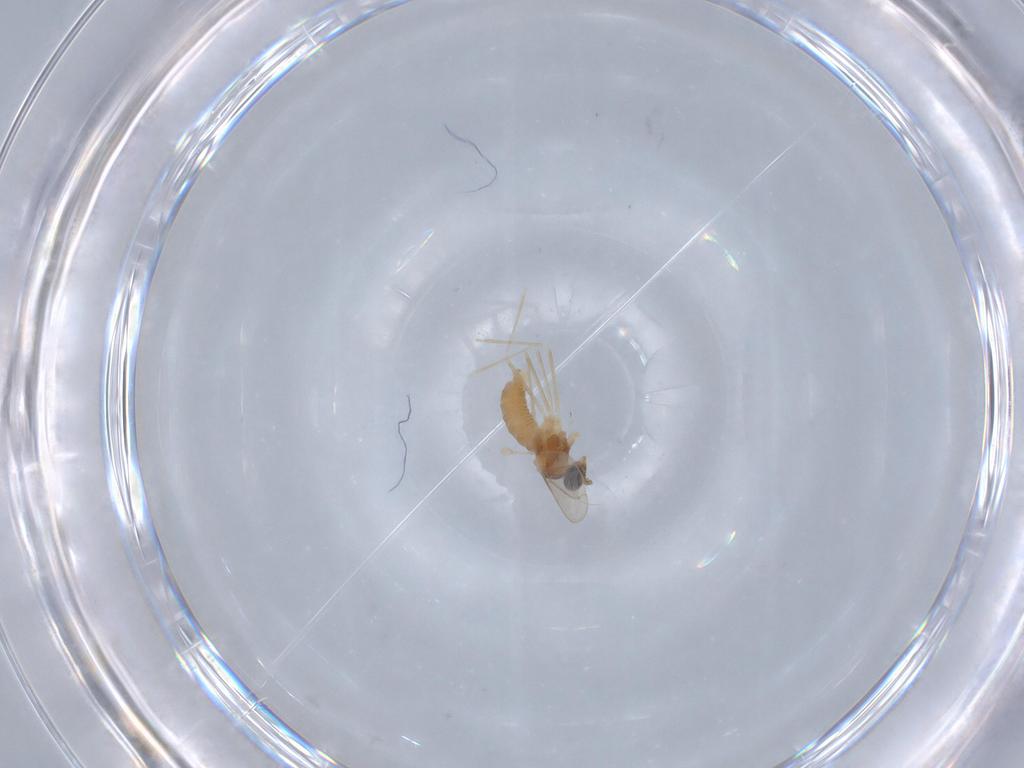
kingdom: Animalia
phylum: Arthropoda
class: Insecta
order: Diptera
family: Cecidomyiidae
